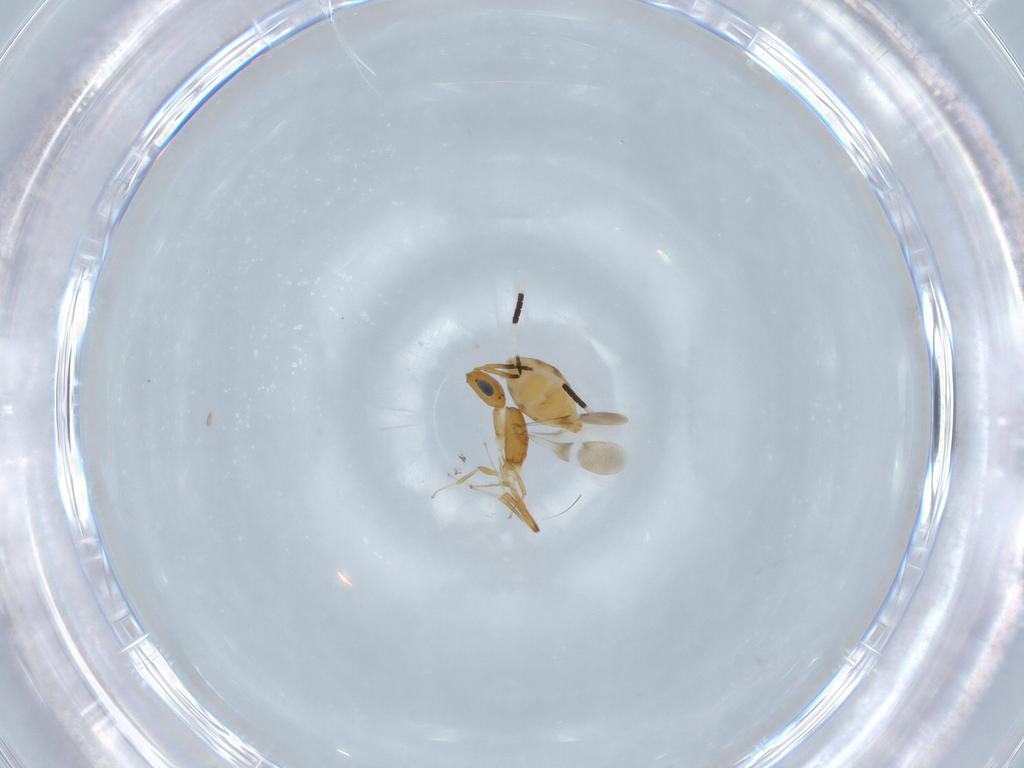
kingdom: Animalia
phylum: Arthropoda
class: Insecta
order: Hymenoptera
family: Scelionidae
